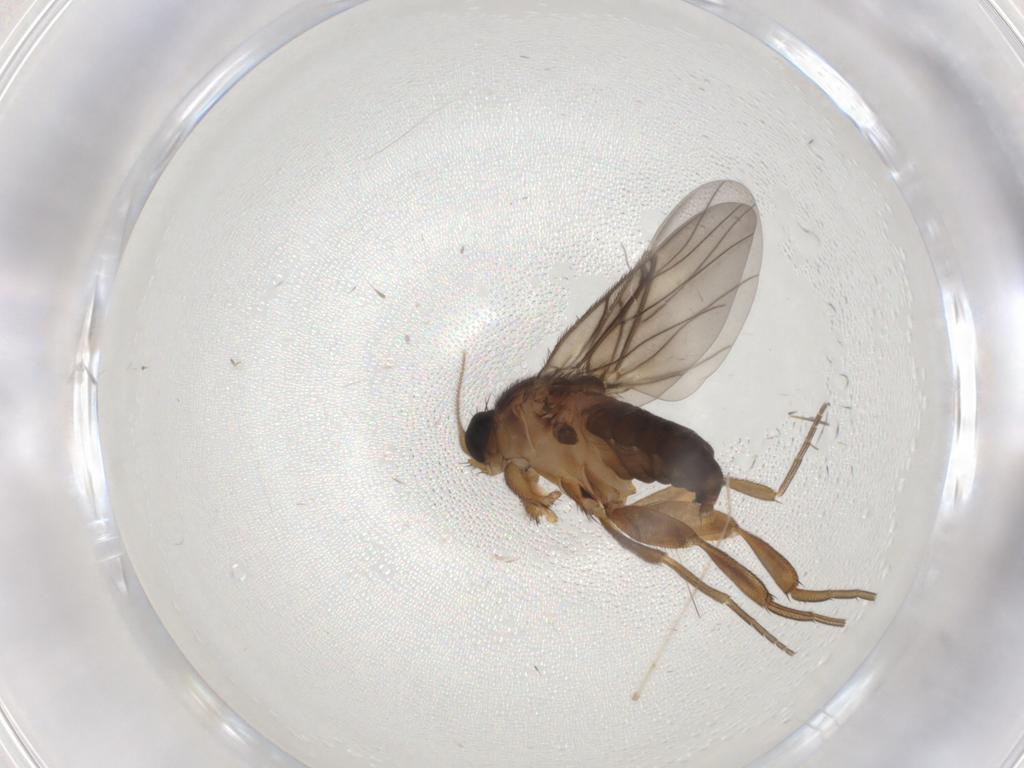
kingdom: Animalia
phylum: Arthropoda
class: Insecta
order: Diptera
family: Chironomidae
